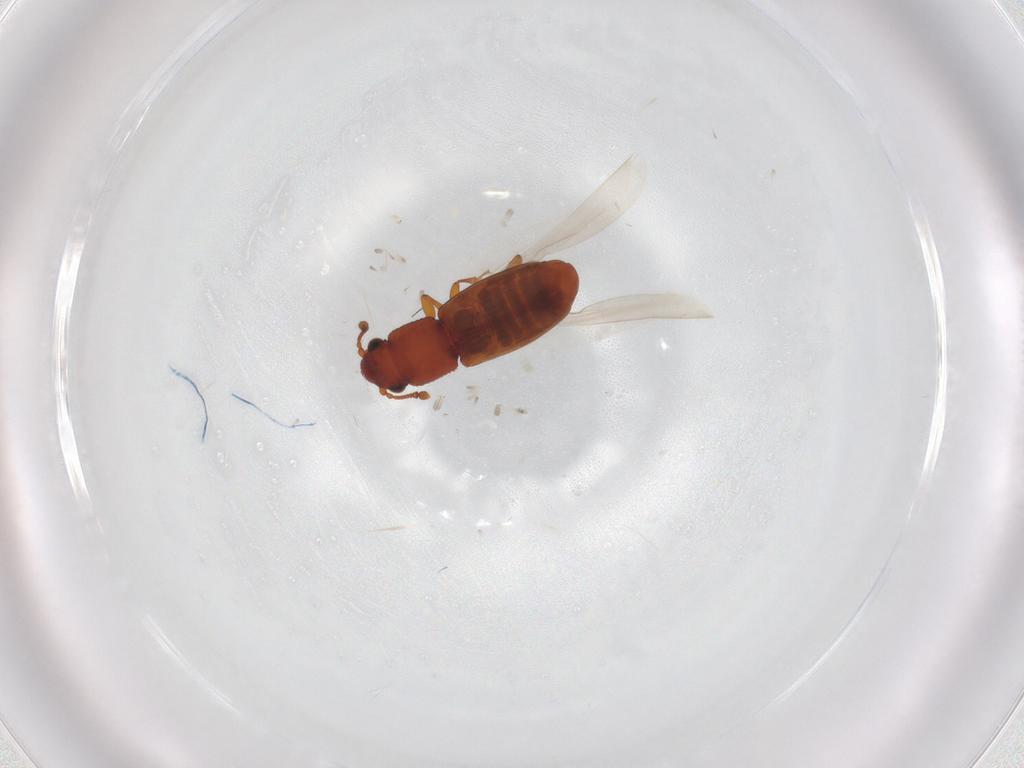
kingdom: Animalia
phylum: Arthropoda
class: Insecta
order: Coleoptera
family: Monotomidae
